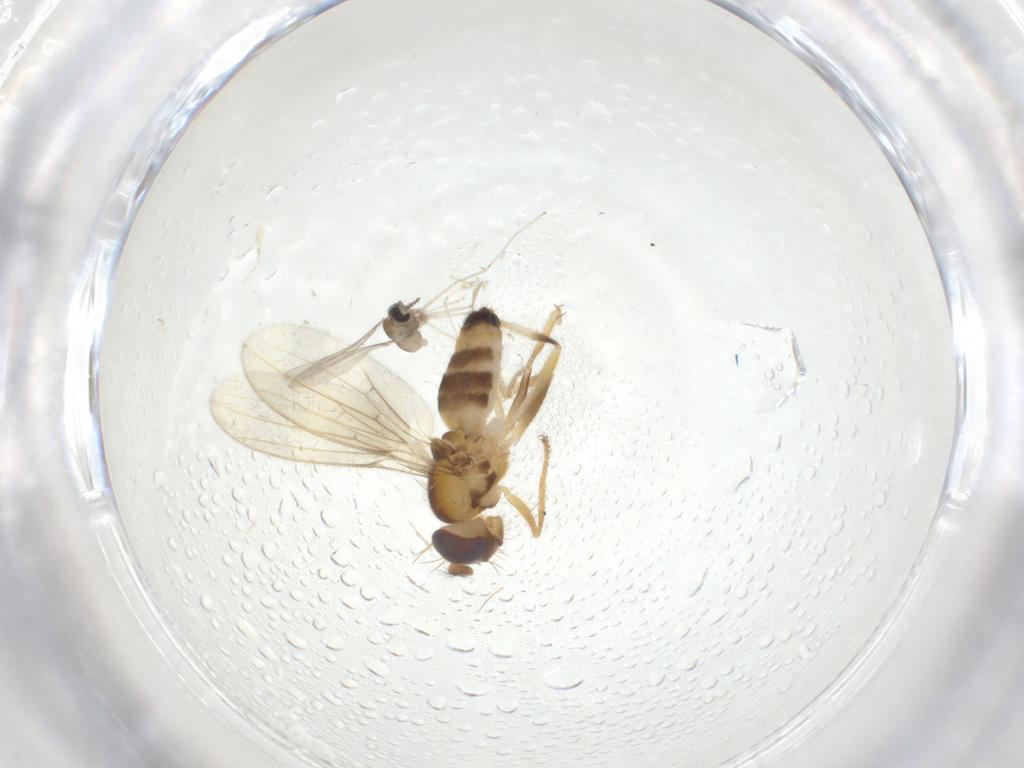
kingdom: Animalia
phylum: Arthropoda
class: Insecta
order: Diptera
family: Periscelididae
